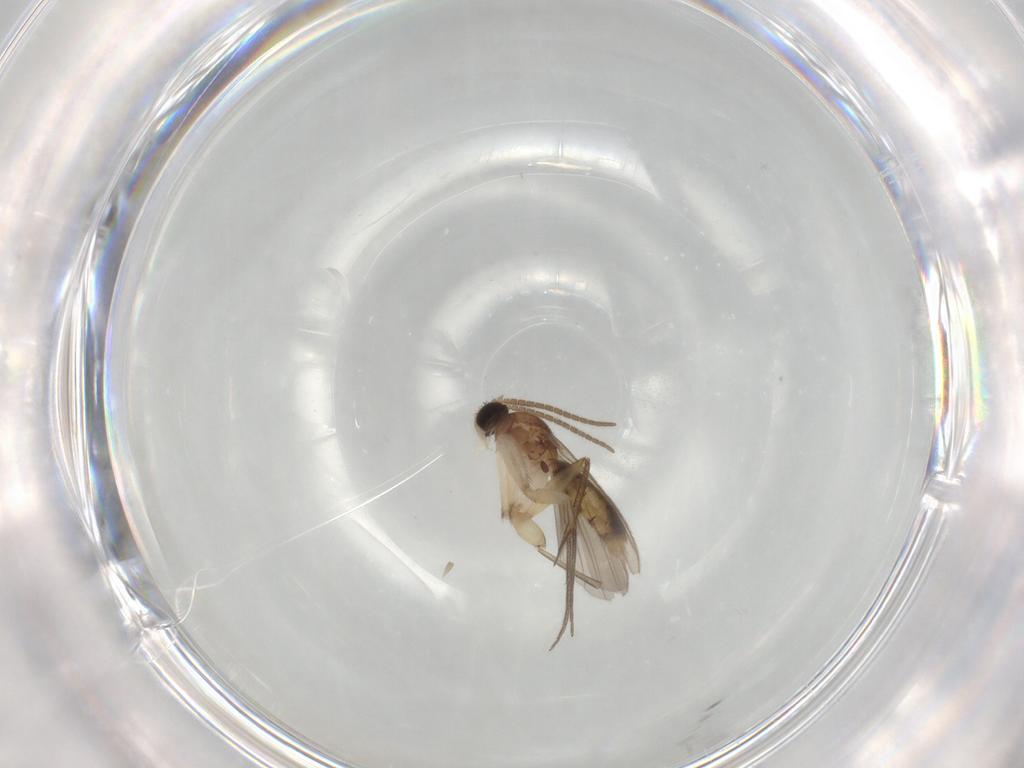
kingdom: Animalia
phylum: Arthropoda
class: Insecta
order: Diptera
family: Mycetophilidae
